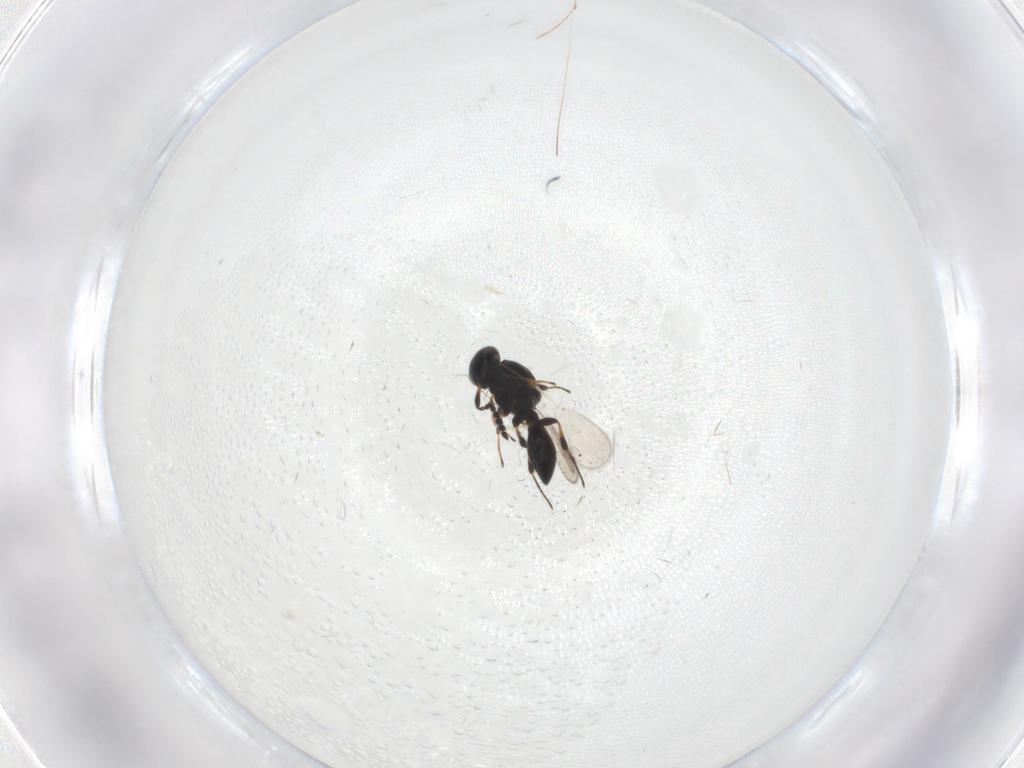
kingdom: Animalia
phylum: Arthropoda
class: Insecta
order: Hymenoptera
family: Platygastridae
